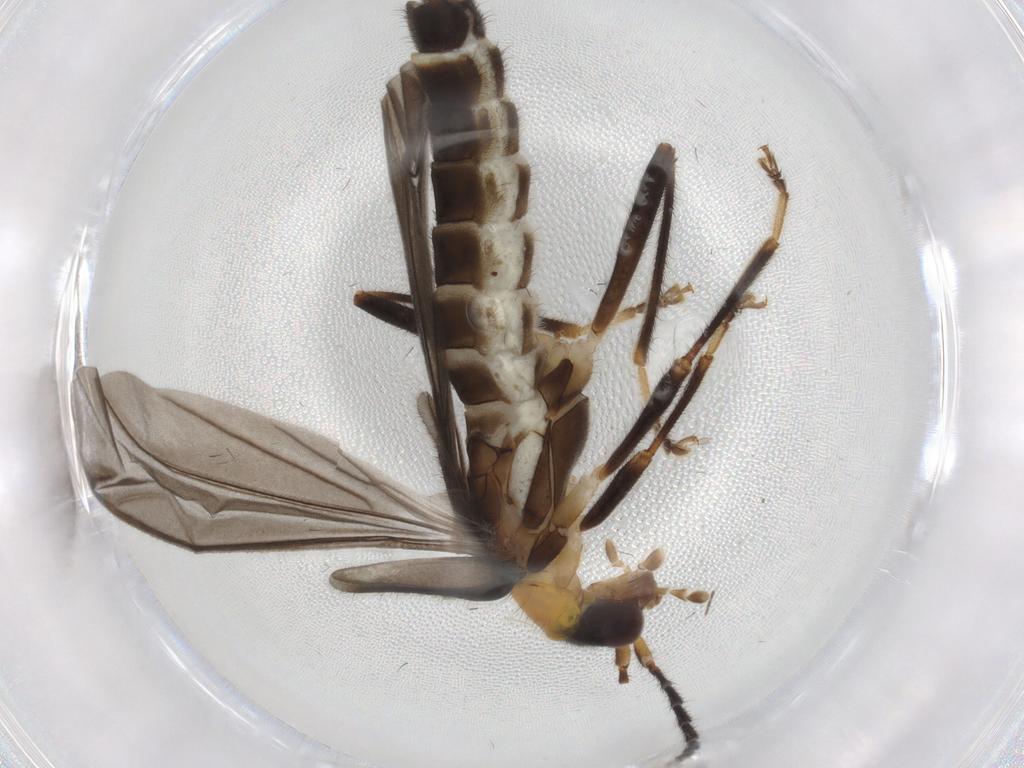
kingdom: Animalia
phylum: Arthropoda
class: Insecta
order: Coleoptera
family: Cantharidae
